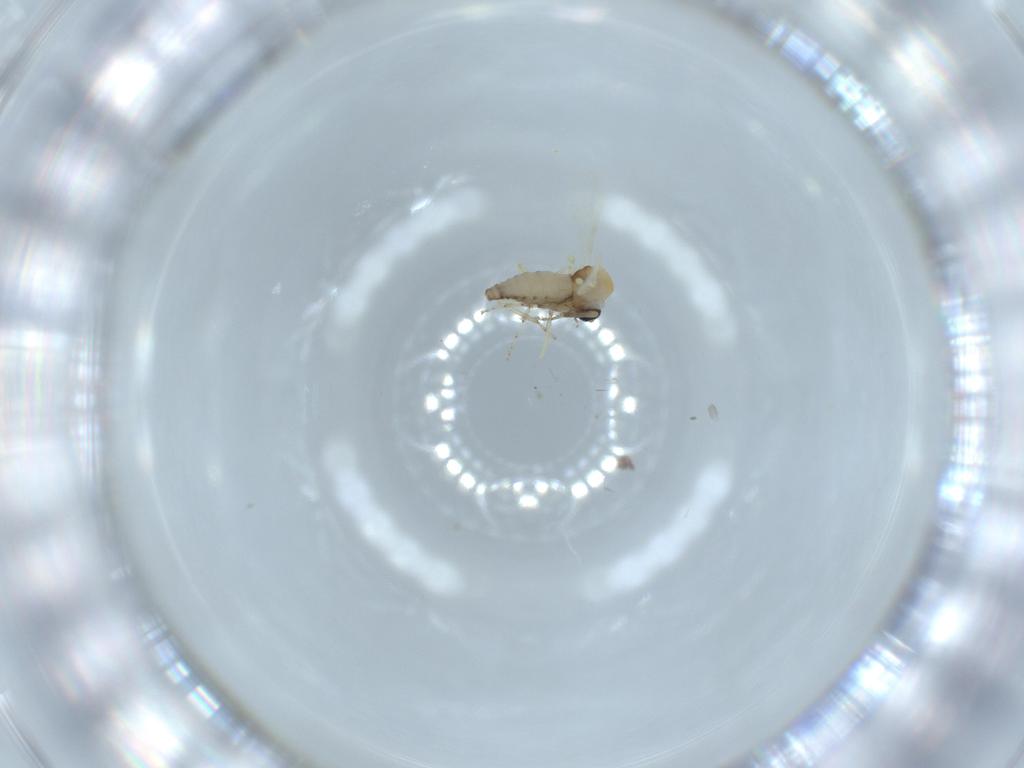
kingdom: Animalia
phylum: Arthropoda
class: Insecta
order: Diptera
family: Ceratopogonidae
